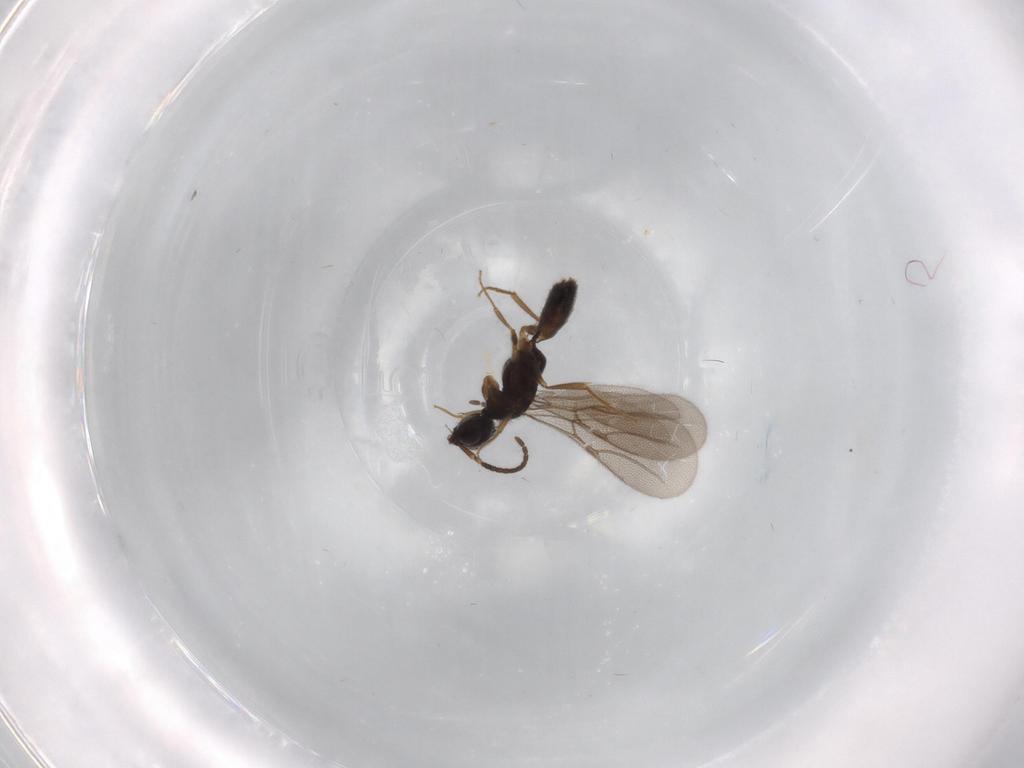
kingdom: Animalia
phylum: Arthropoda
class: Insecta
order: Hymenoptera
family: Bethylidae
